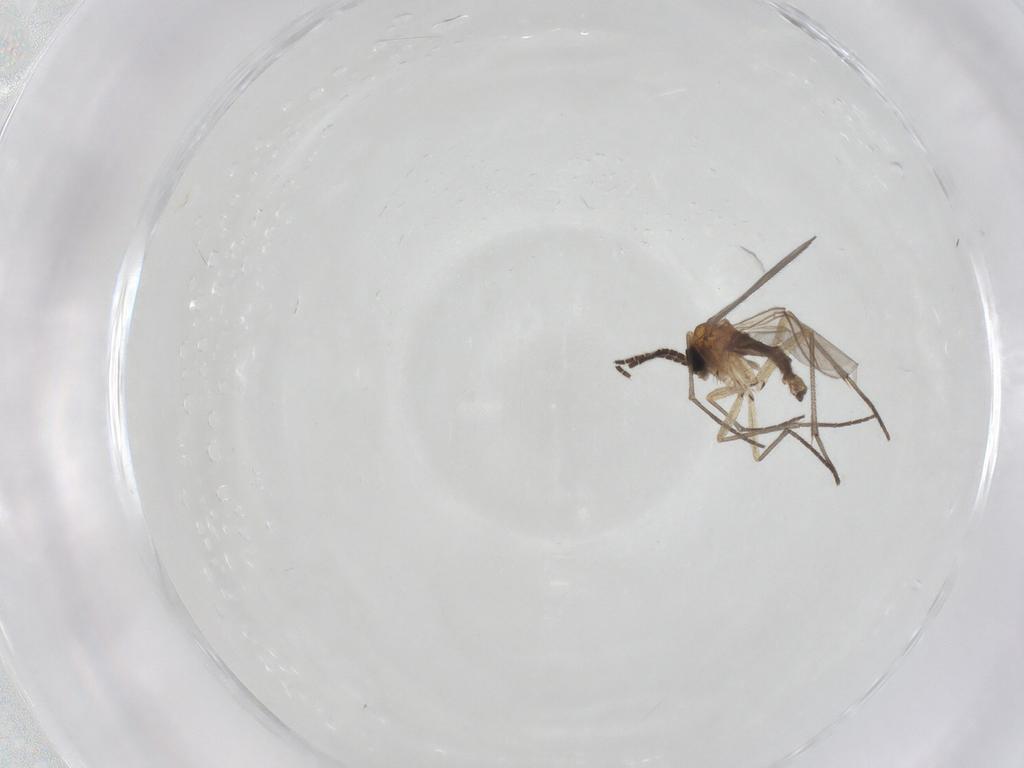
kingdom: Animalia
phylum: Arthropoda
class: Insecta
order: Diptera
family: Sciaridae
